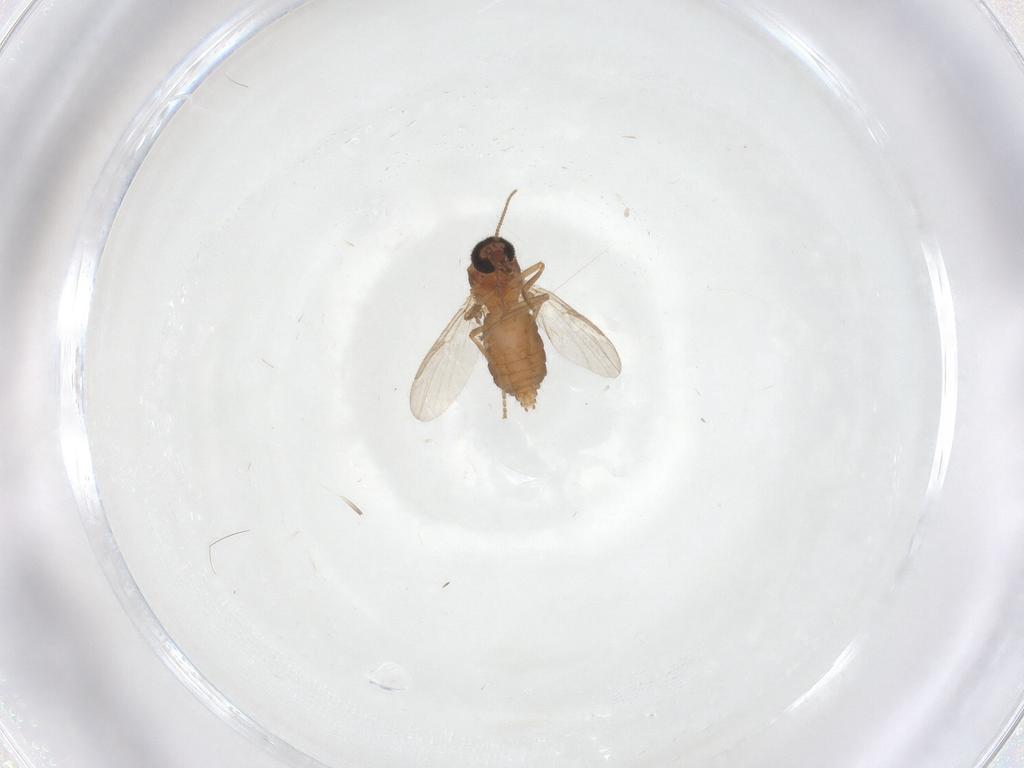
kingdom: Animalia
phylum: Arthropoda
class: Insecta
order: Diptera
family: Ceratopogonidae
